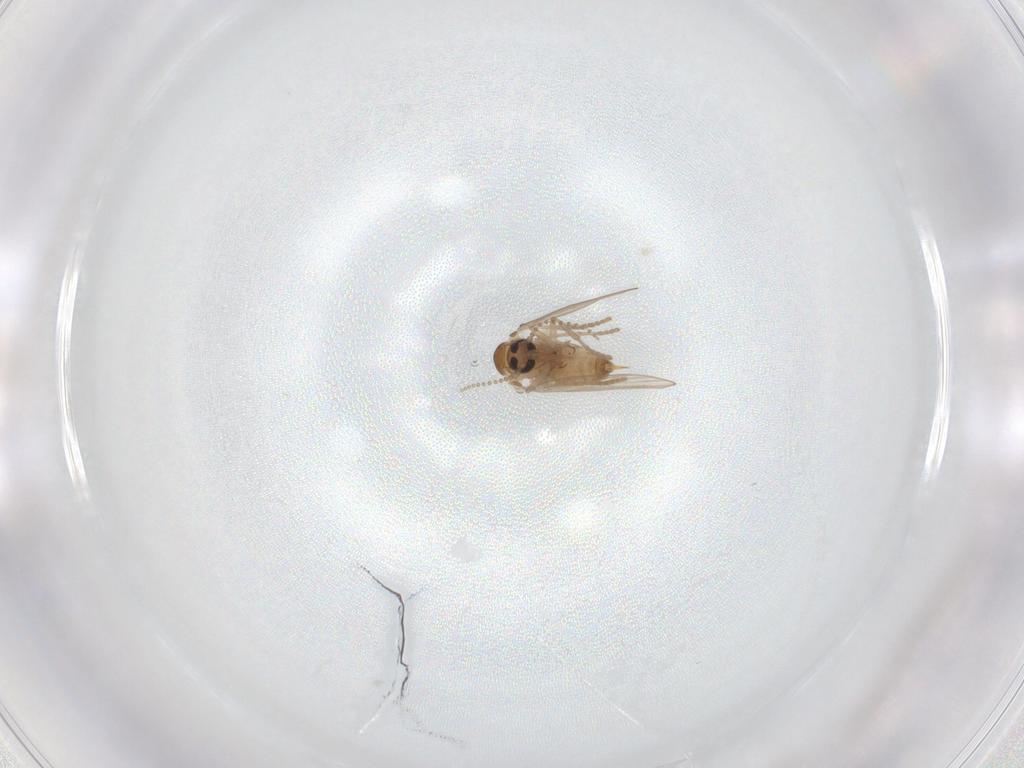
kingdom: Animalia
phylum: Arthropoda
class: Insecta
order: Diptera
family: Psychodidae
